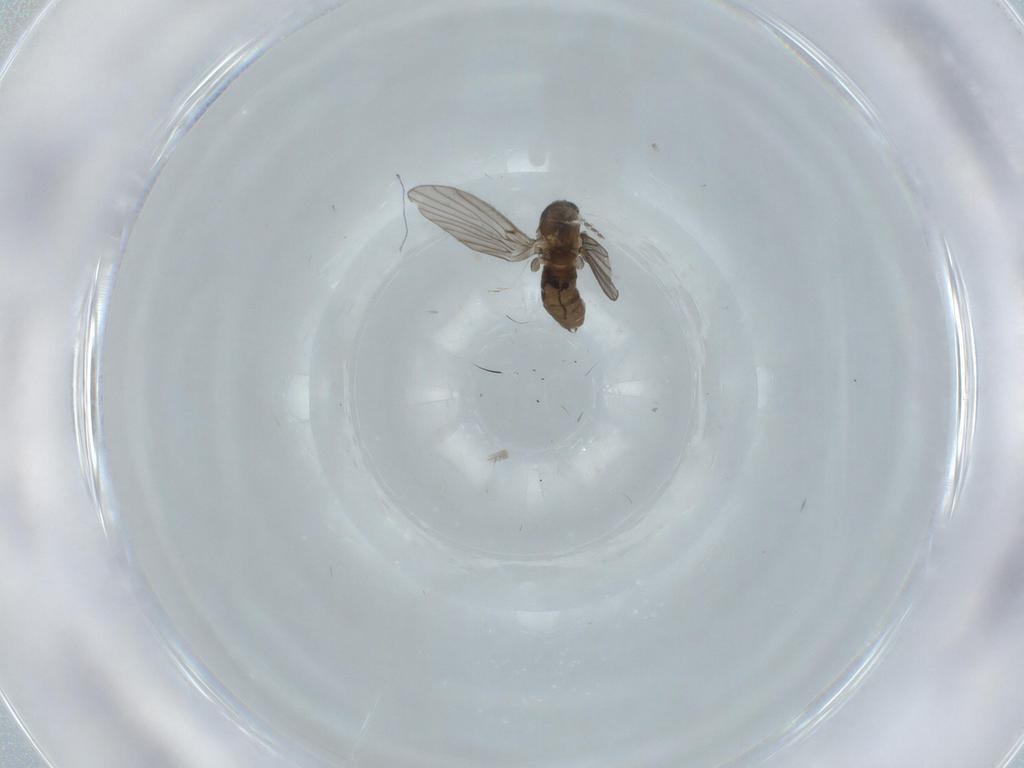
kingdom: Animalia
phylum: Arthropoda
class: Insecta
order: Diptera
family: Psychodidae
